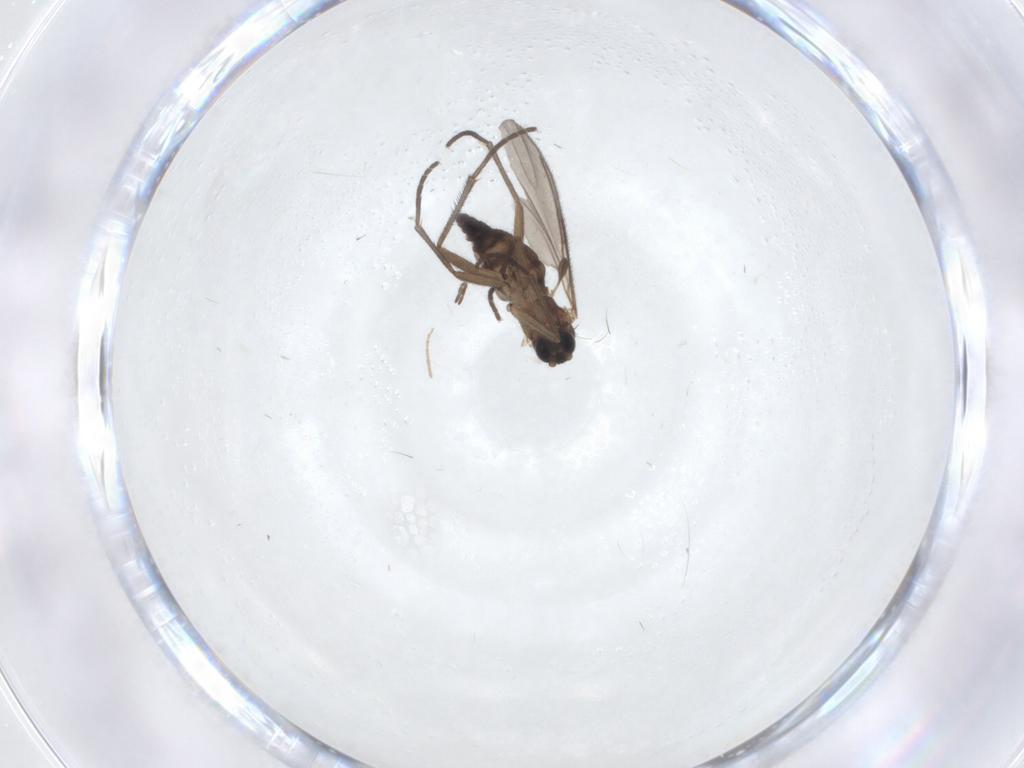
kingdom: Animalia
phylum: Arthropoda
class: Insecta
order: Diptera
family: Sciaridae
